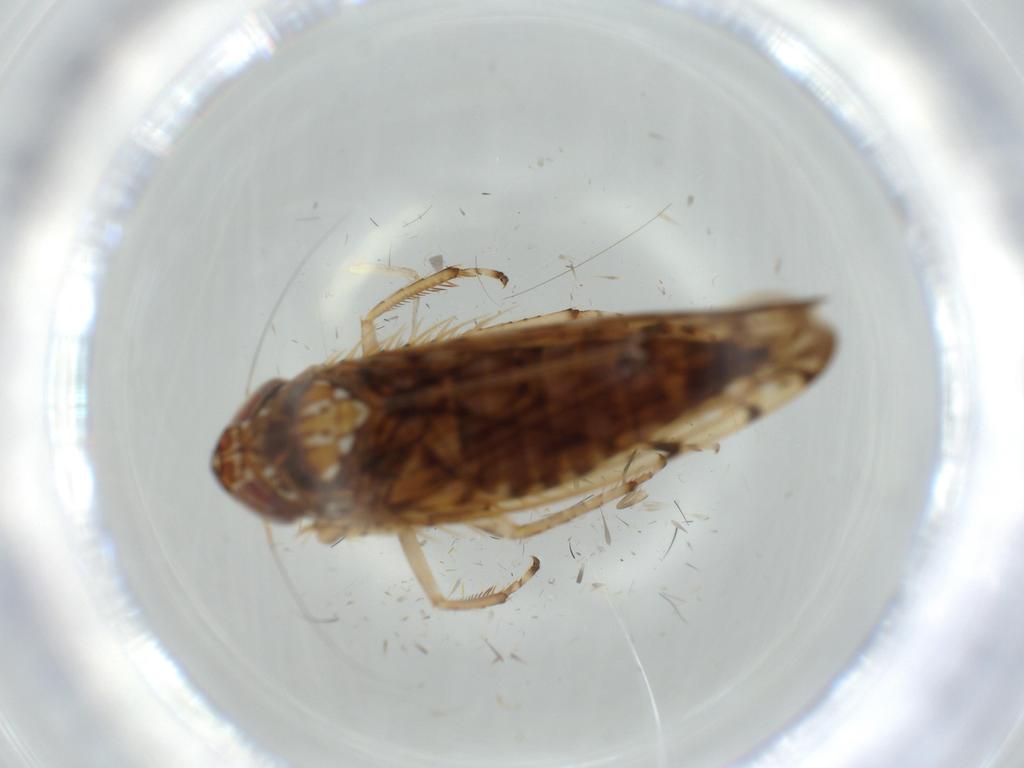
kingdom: Animalia
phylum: Arthropoda
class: Insecta
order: Hemiptera
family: Cicadellidae
